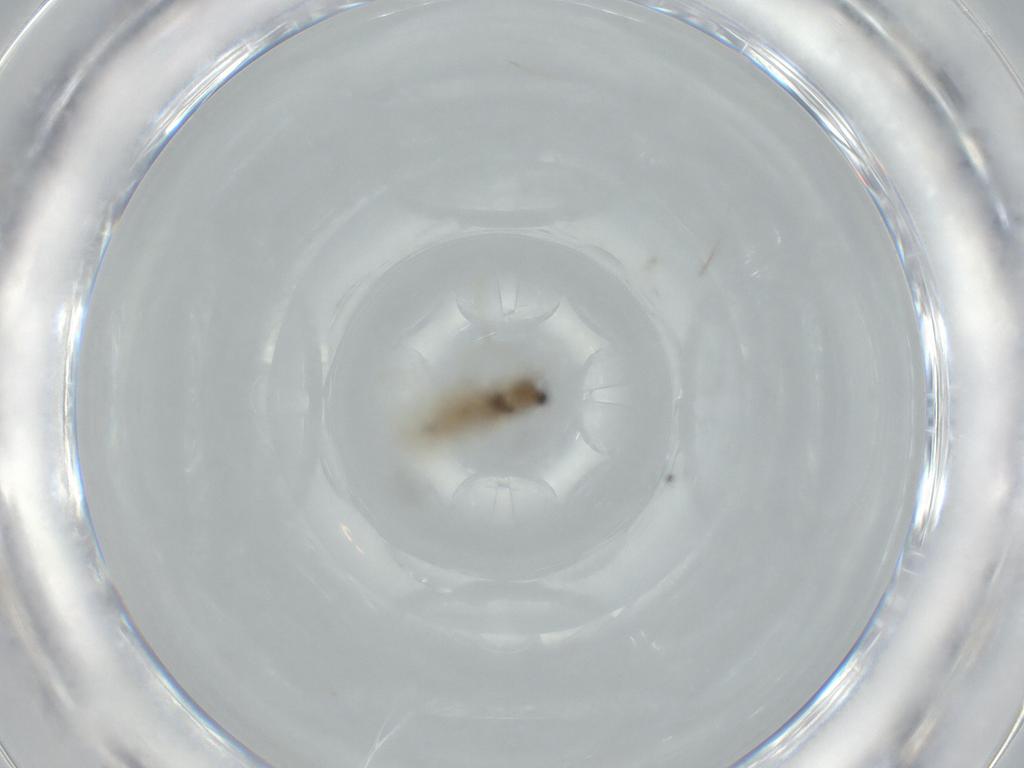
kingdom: Animalia
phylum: Arthropoda
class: Insecta
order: Diptera
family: Cecidomyiidae
